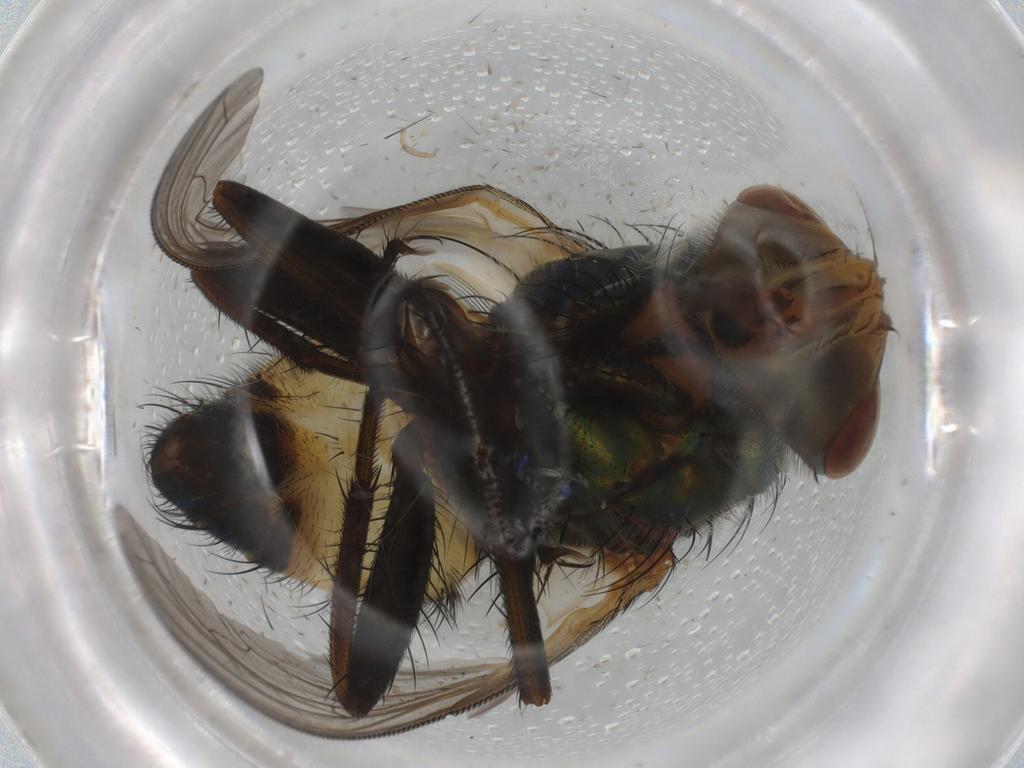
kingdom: Animalia
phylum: Arthropoda
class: Insecta
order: Diptera
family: Calliphoridae
